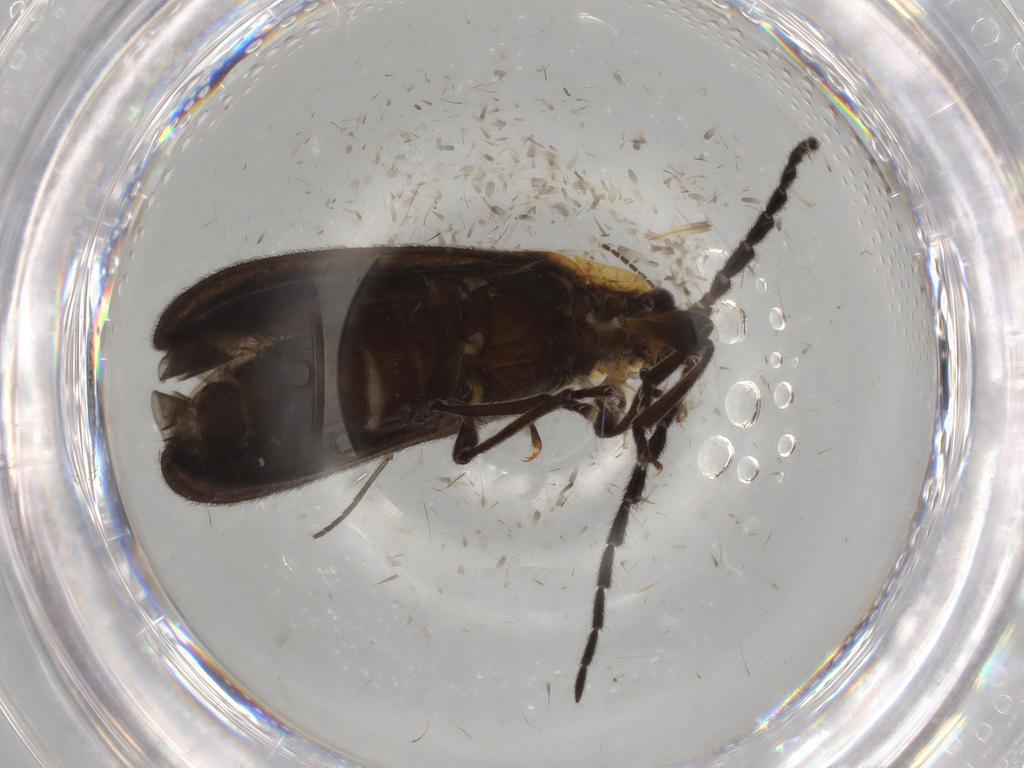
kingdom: Animalia
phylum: Arthropoda
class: Insecta
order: Coleoptera
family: Lycidae
